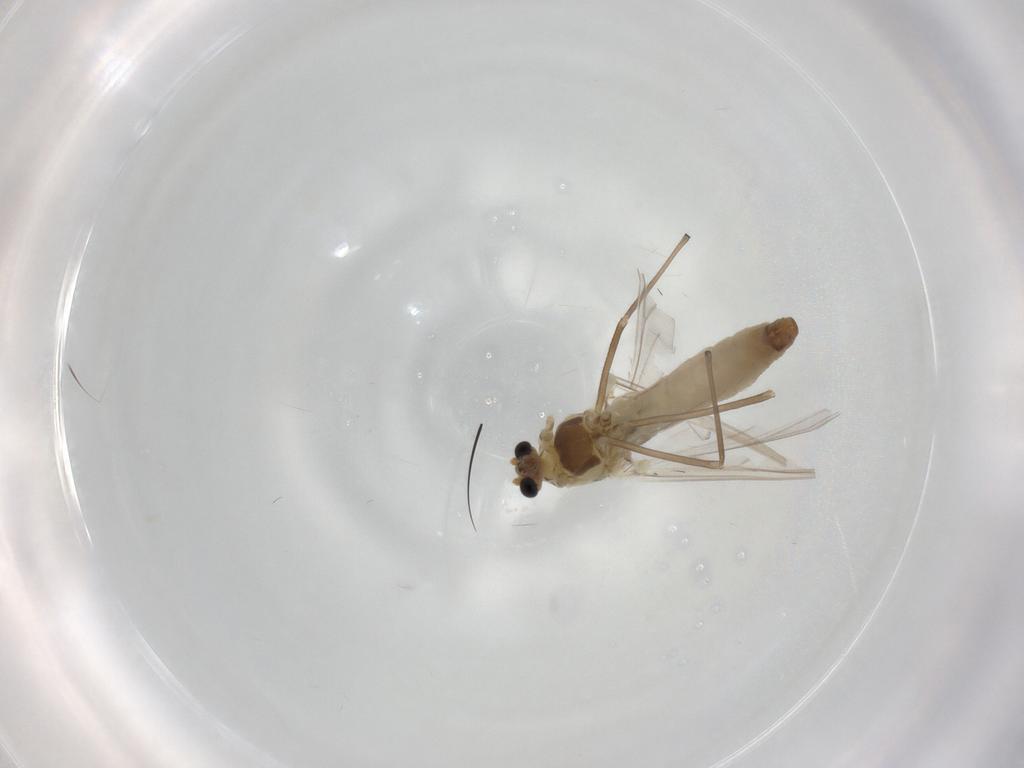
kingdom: Animalia
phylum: Arthropoda
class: Insecta
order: Diptera
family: Chironomidae
